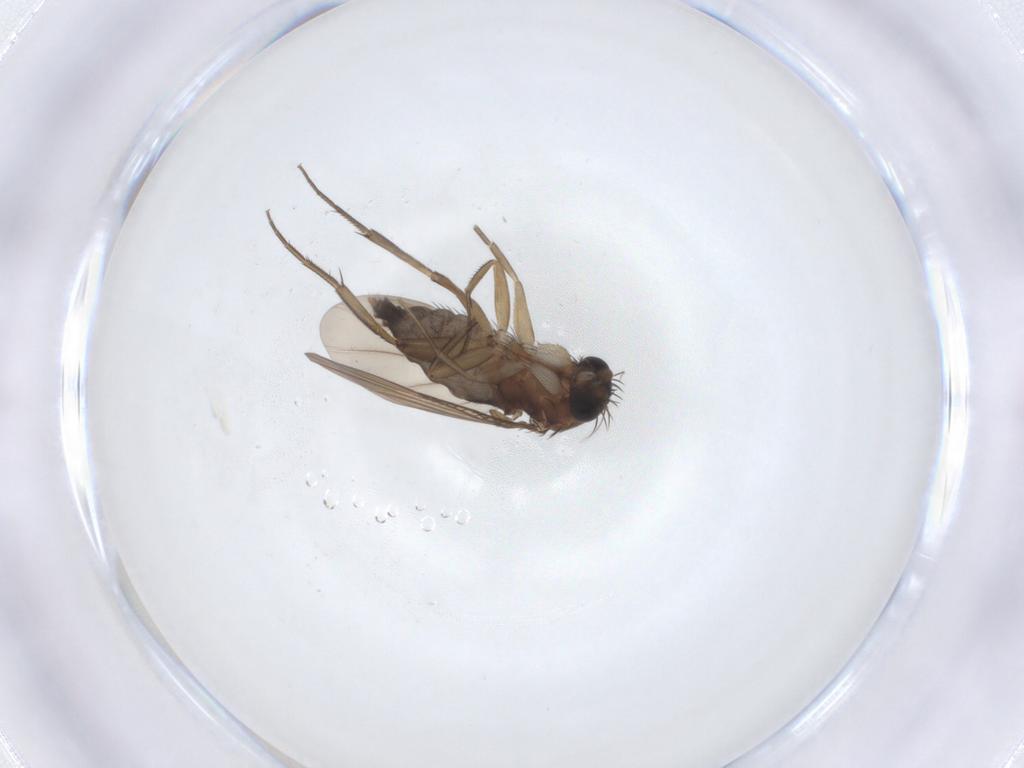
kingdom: Animalia
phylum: Arthropoda
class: Insecta
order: Diptera
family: Phoridae
